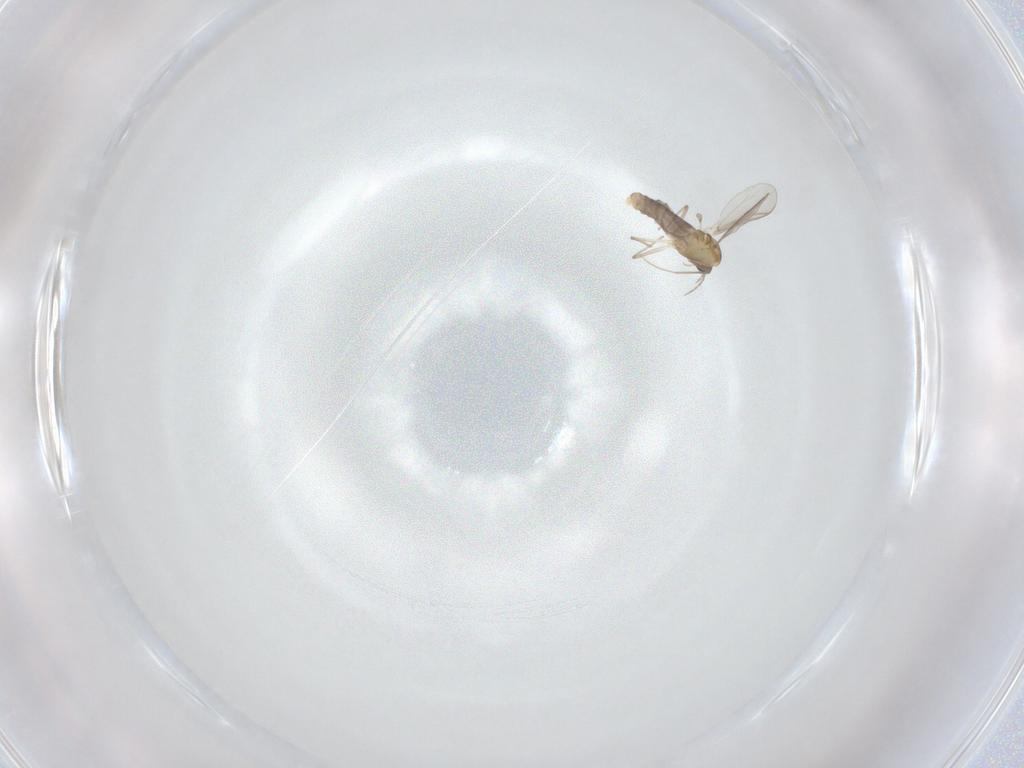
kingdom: Animalia
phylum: Arthropoda
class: Insecta
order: Diptera
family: Chironomidae
